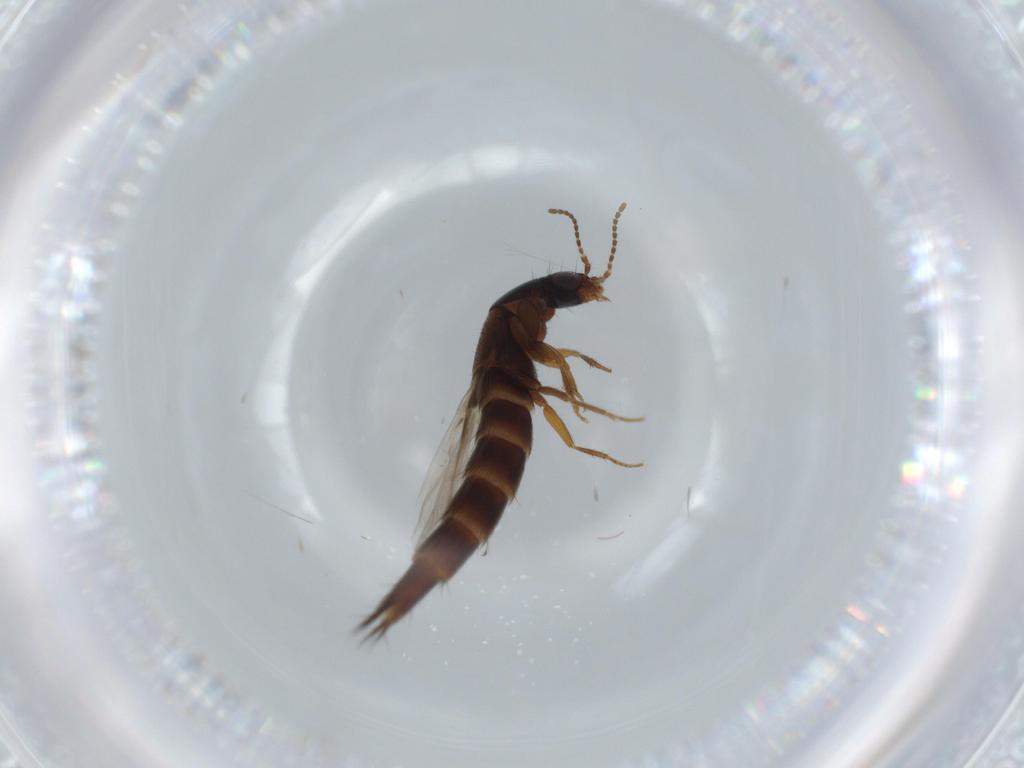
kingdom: Animalia
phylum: Arthropoda
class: Insecta
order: Coleoptera
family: Staphylinidae
